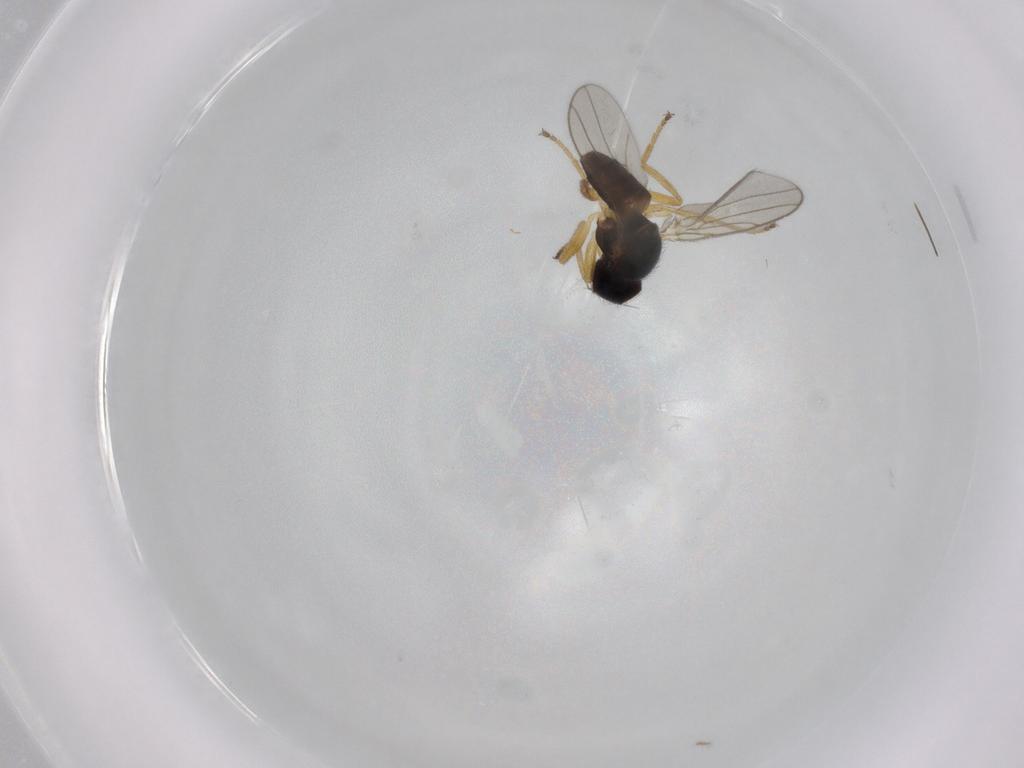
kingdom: Animalia
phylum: Arthropoda
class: Insecta
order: Diptera
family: Chloropidae
